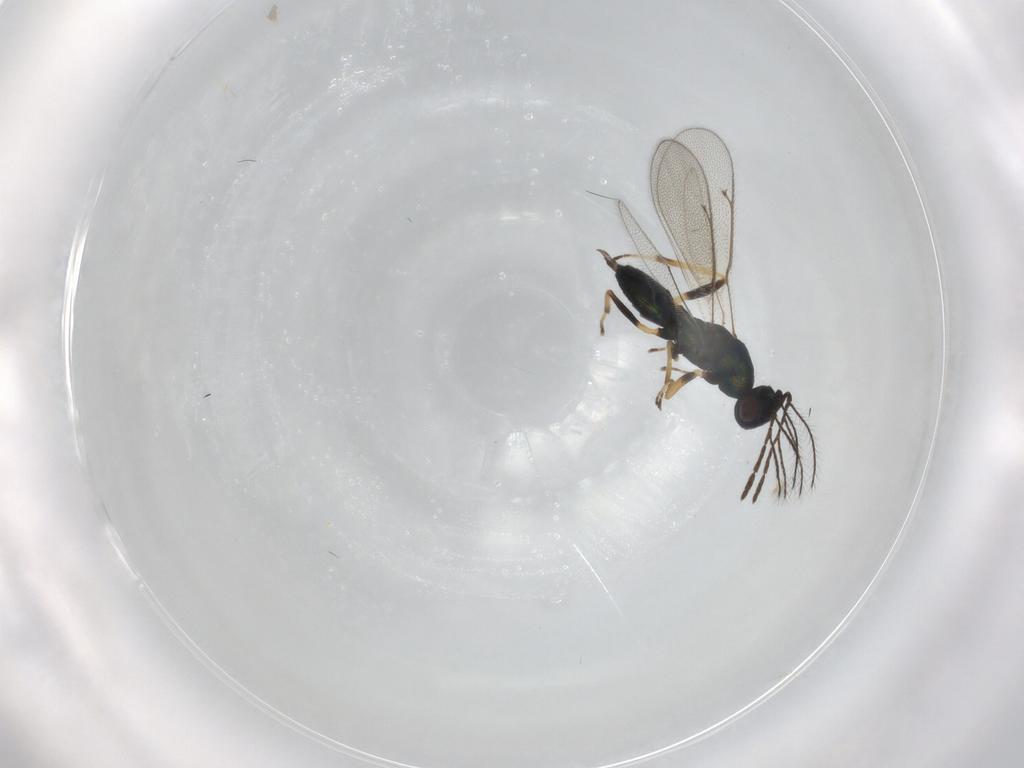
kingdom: Animalia
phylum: Arthropoda
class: Insecta
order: Hymenoptera
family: Eulophidae
